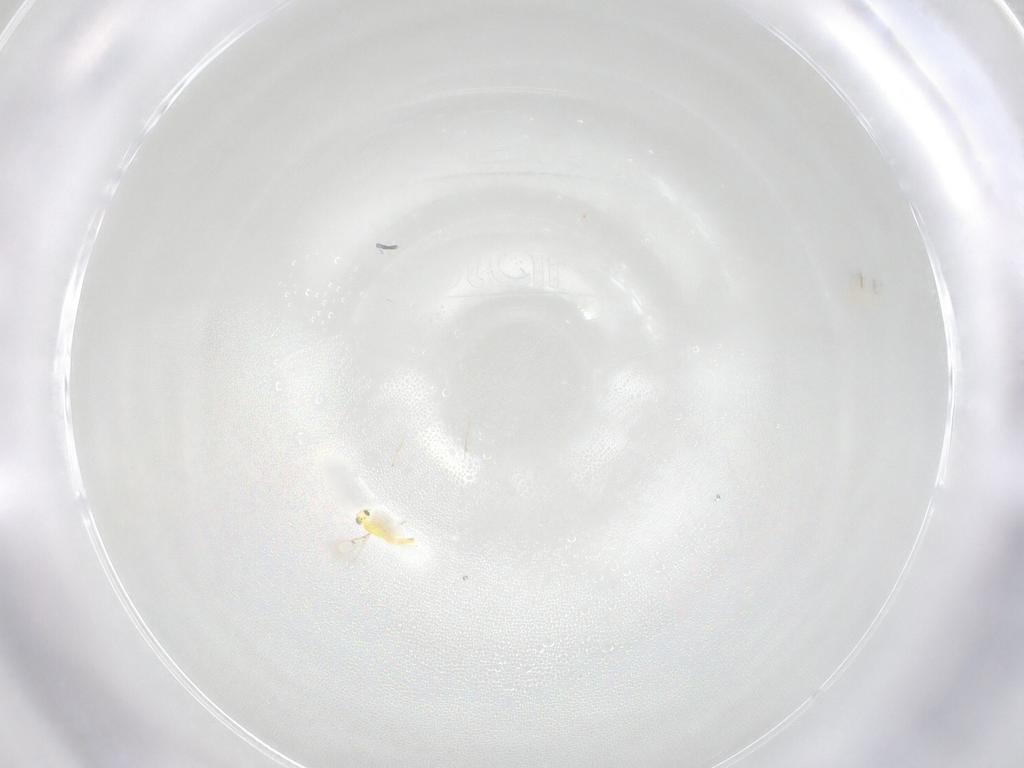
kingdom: Animalia
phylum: Arthropoda
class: Insecta
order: Hymenoptera
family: Trichogrammatidae
